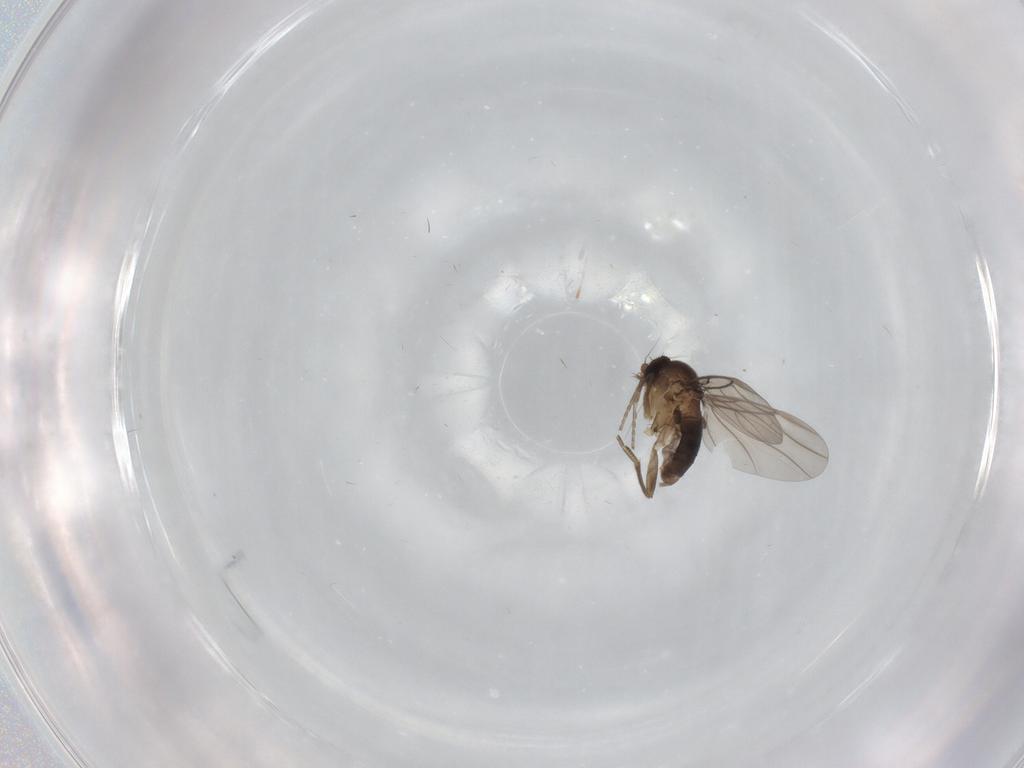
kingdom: Animalia
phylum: Arthropoda
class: Insecta
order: Diptera
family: Phoridae
